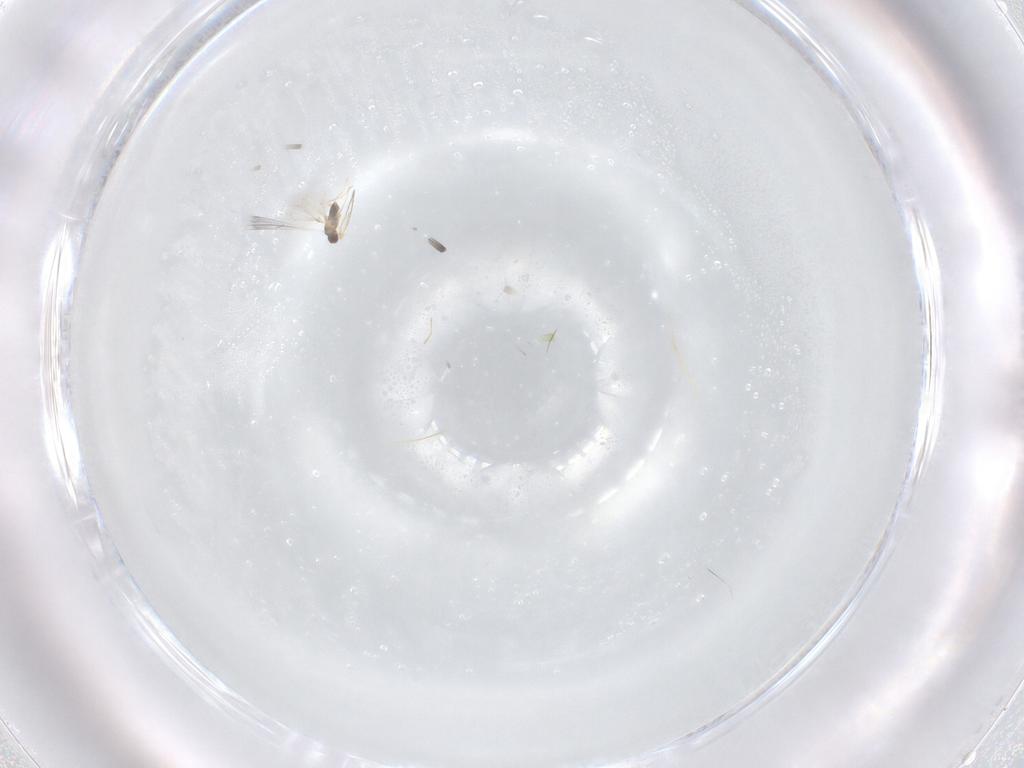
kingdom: Animalia
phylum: Arthropoda
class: Insecta
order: Hymenoptera
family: Mymaridae
